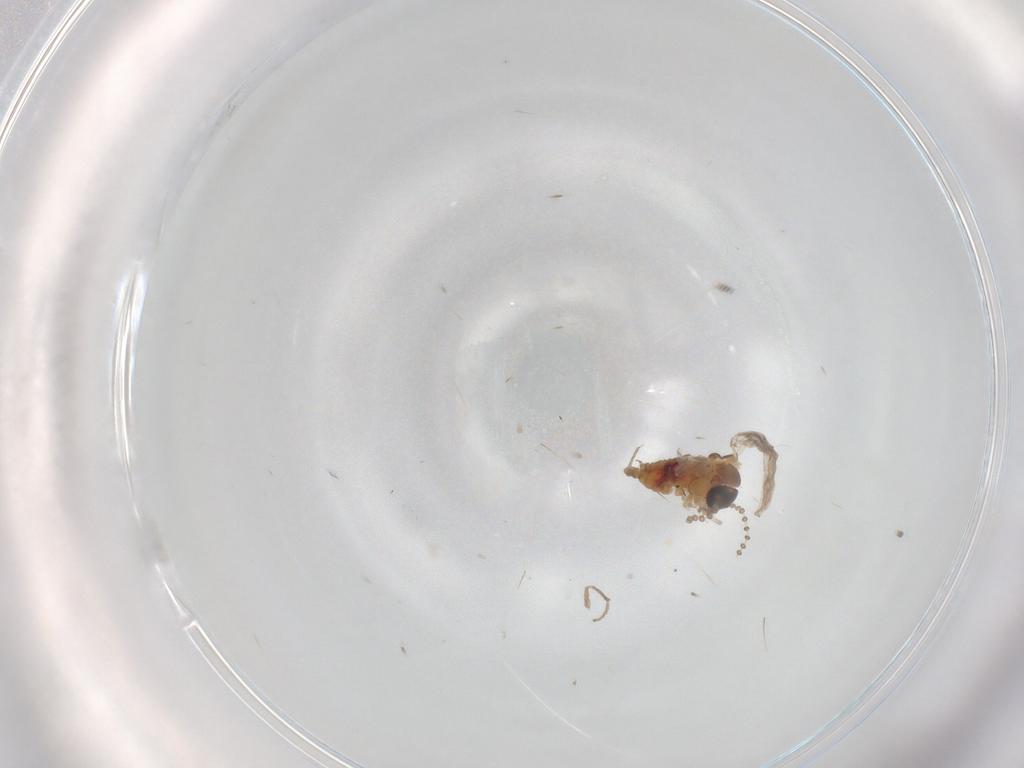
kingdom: Animalia
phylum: Arthropoda
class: Insecta
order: Diptera
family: Psychodidae
